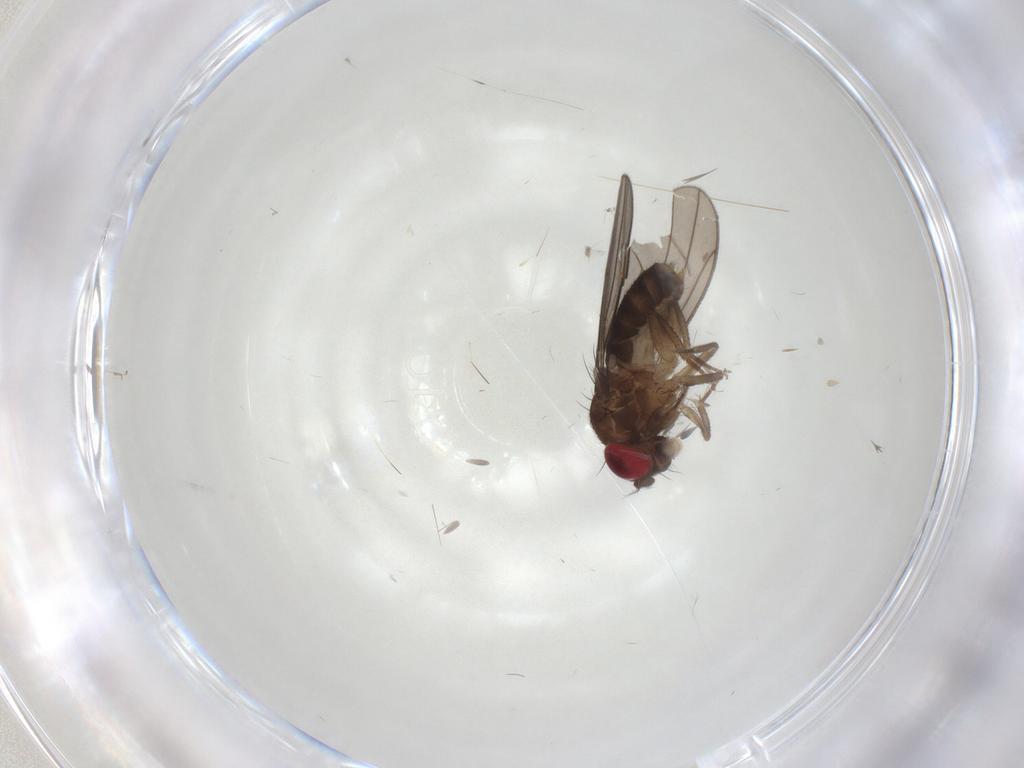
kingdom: Animalia
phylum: Arthropoda
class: Insecta
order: Diptera
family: Drosophilidae
